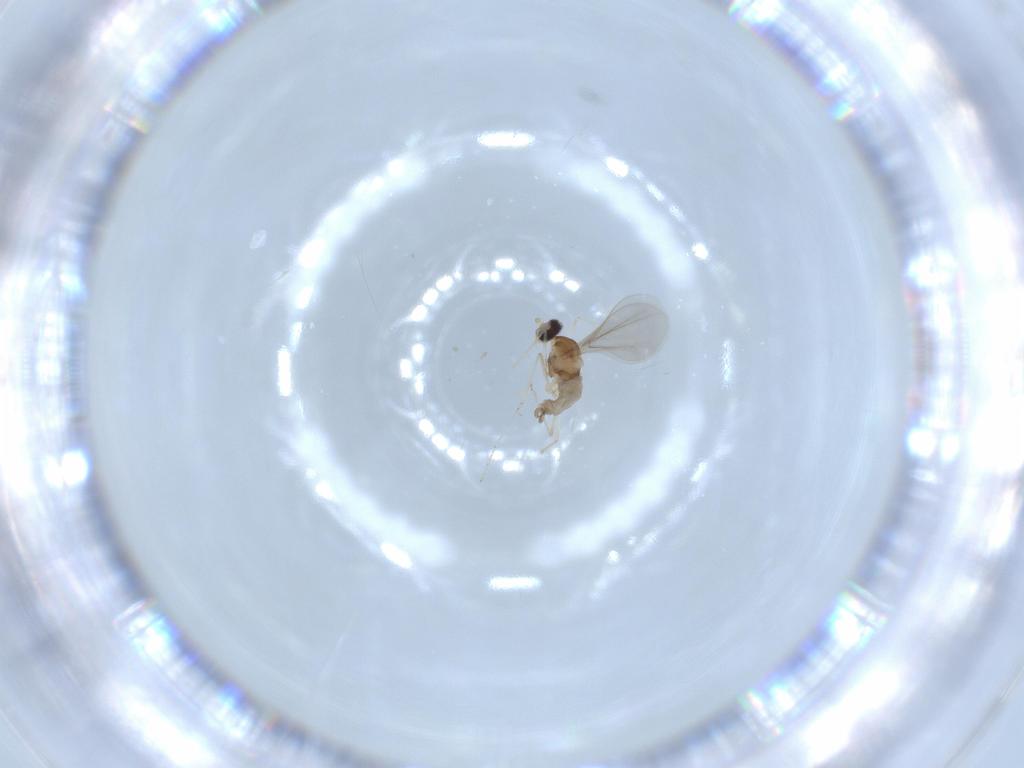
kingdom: Animalia
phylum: Arthropoda
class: Insecta
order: Diptera
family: Cecidomyiidae
